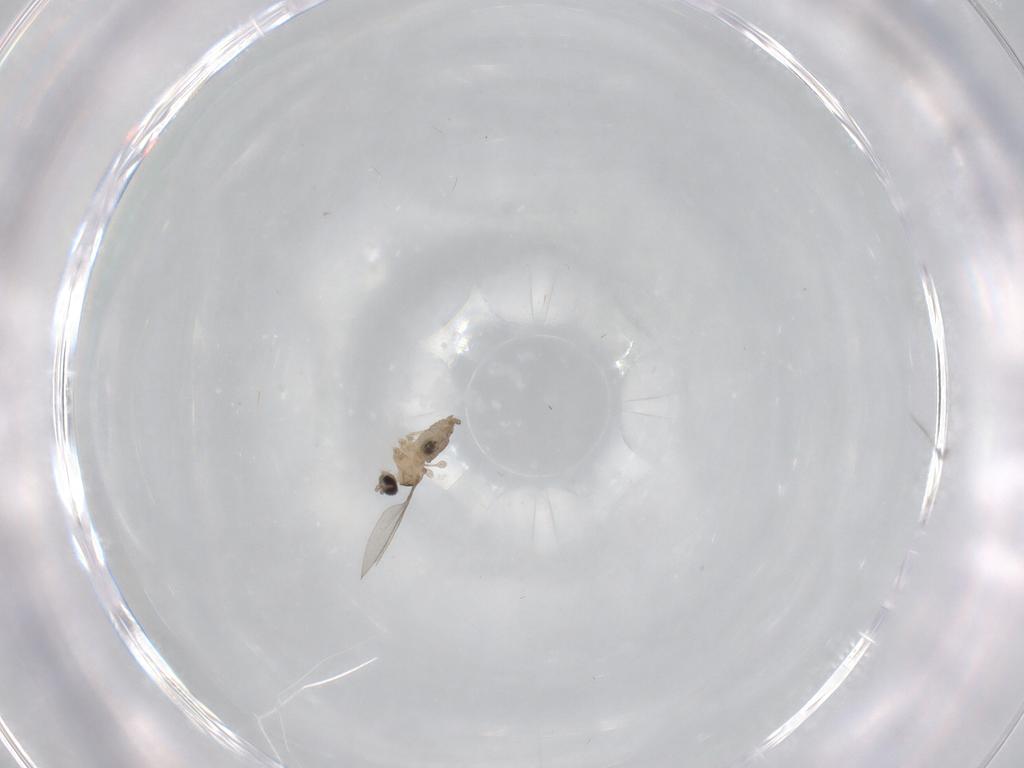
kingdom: Animalia
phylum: Arthropoda
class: Insecta
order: Diptera
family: Cecidomyiidae
